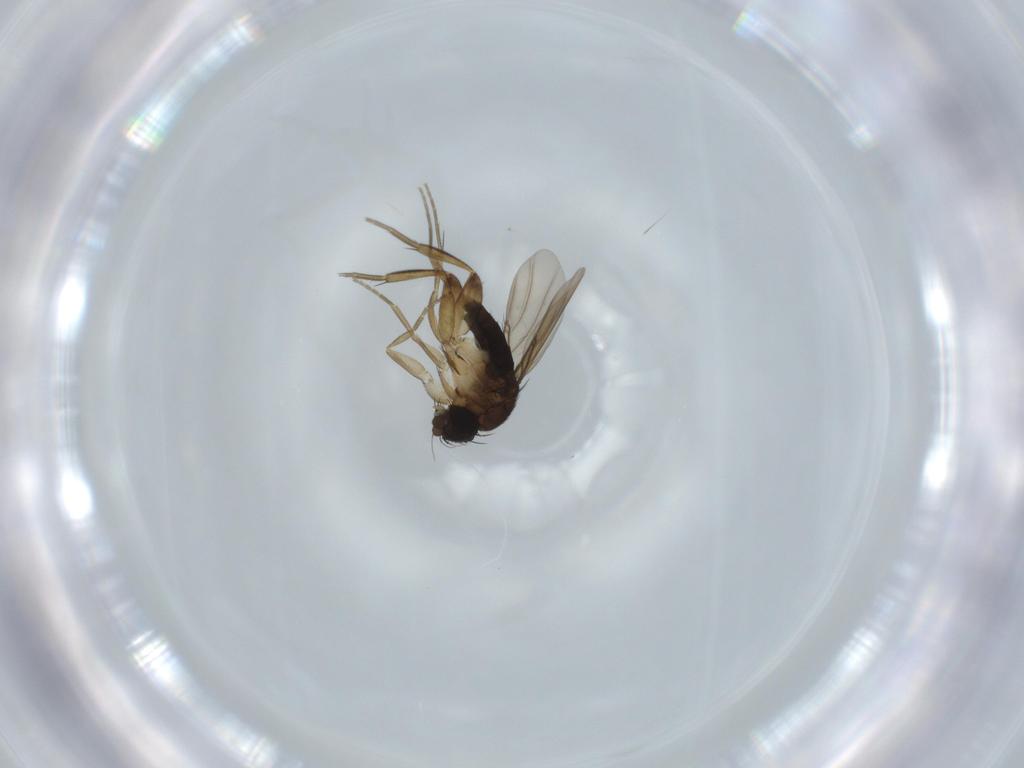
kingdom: Animalia
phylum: Arthropoda
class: Insecta
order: Diptera
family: Phoridae
